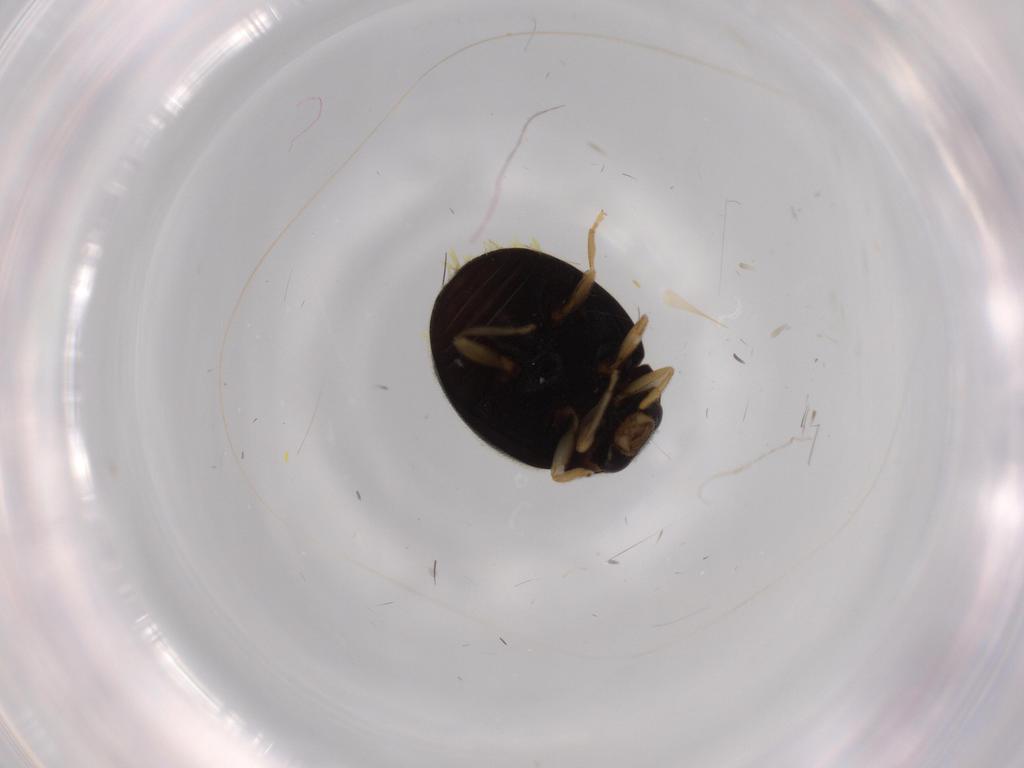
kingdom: Animalia
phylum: Arthropoda
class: Insecta
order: Coleoptera
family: Coccinellidae
